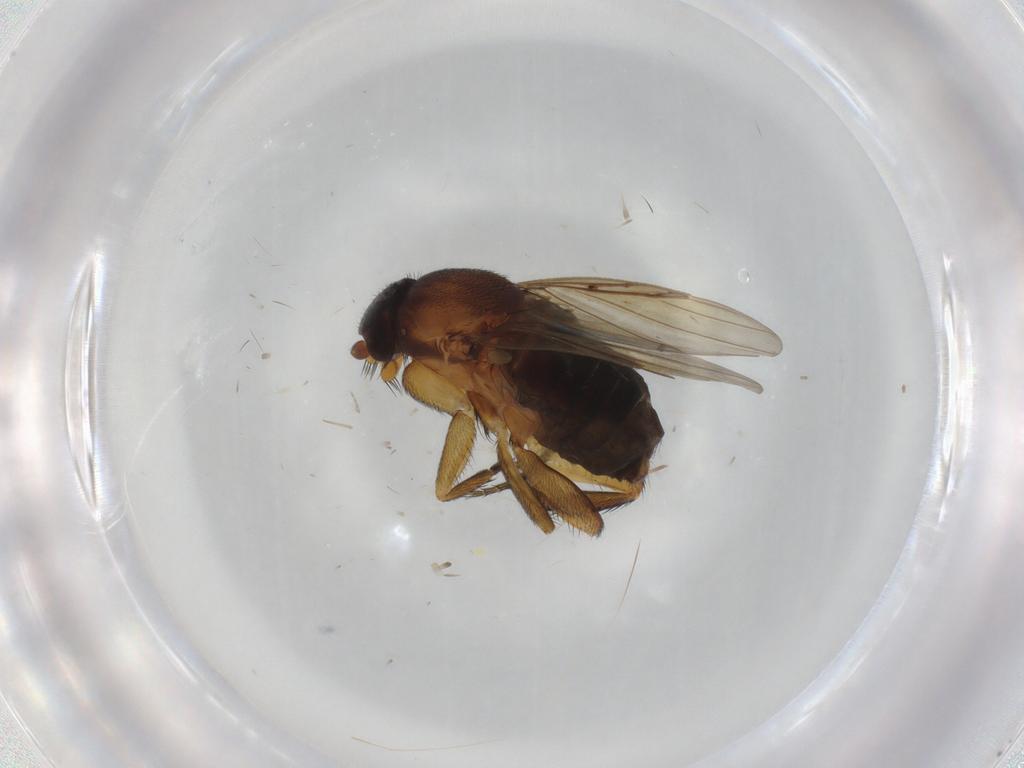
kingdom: Animalia
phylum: Arthropoda
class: Insecta
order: Diptera
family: Phoridae
